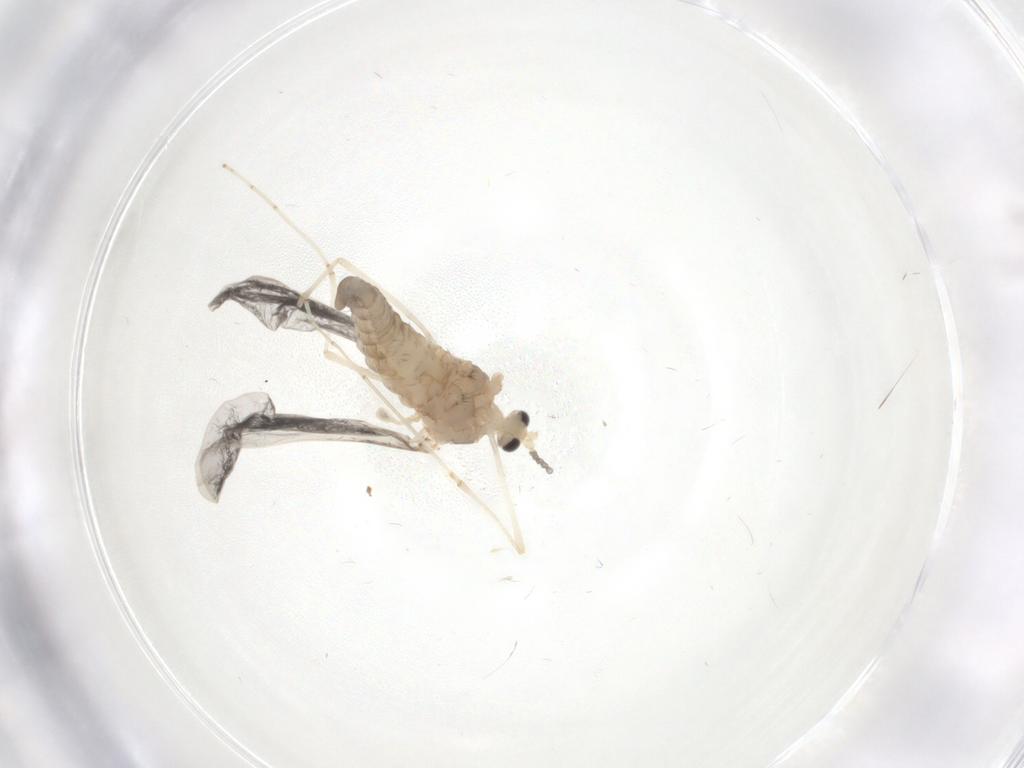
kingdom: Animalia
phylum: Arthropoda
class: Insecta
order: Diptera
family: Cecidomyiidae
